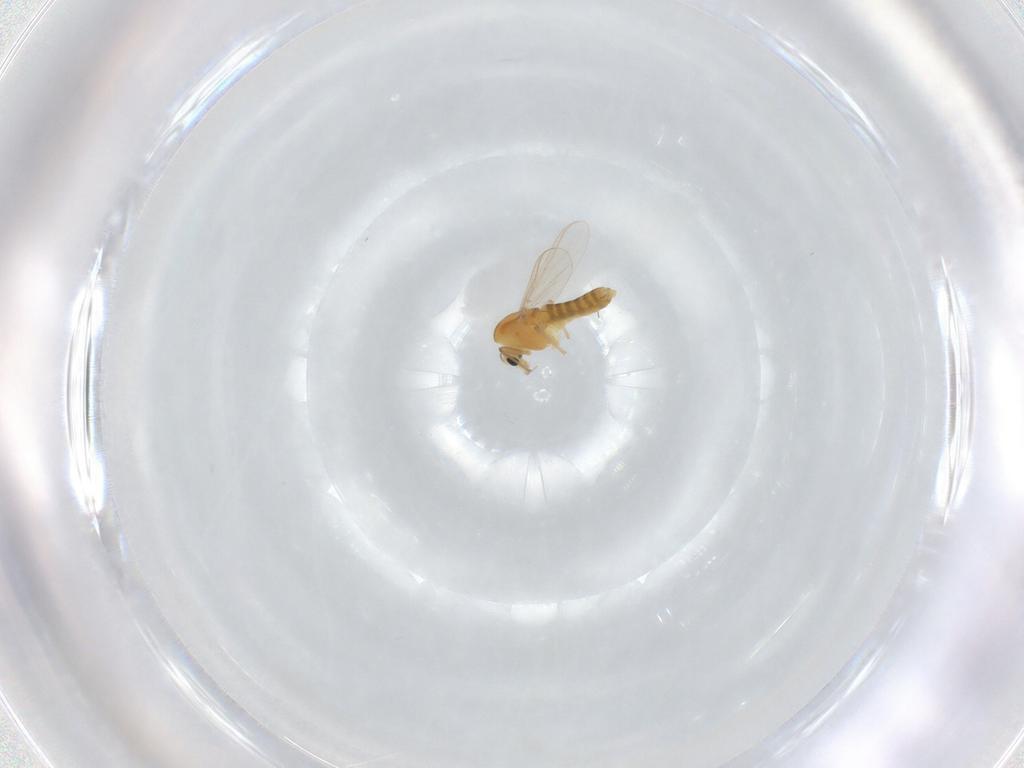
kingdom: Animalia
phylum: Arthropoda
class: Insecta
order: Diptera
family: Chironomidae
